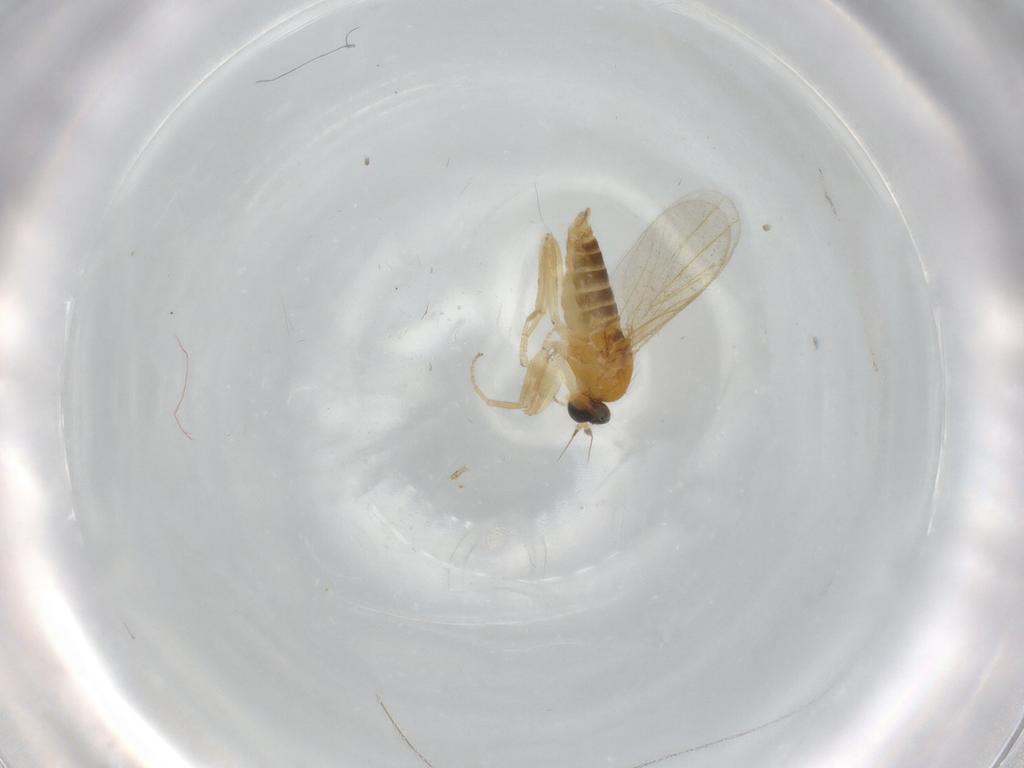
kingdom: Animalia
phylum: Arthropoda
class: Insecta
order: Diptera
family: Hybotidae
